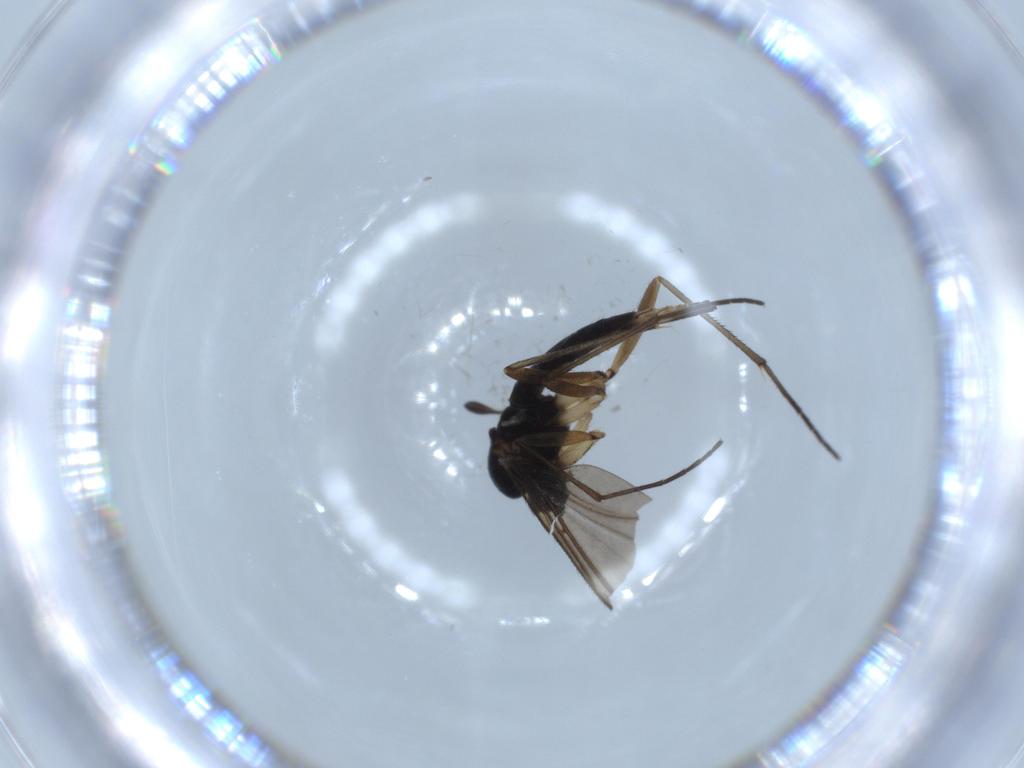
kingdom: Animalia
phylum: Arthropoda
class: Insecta
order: Diptera
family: Sciaridae
